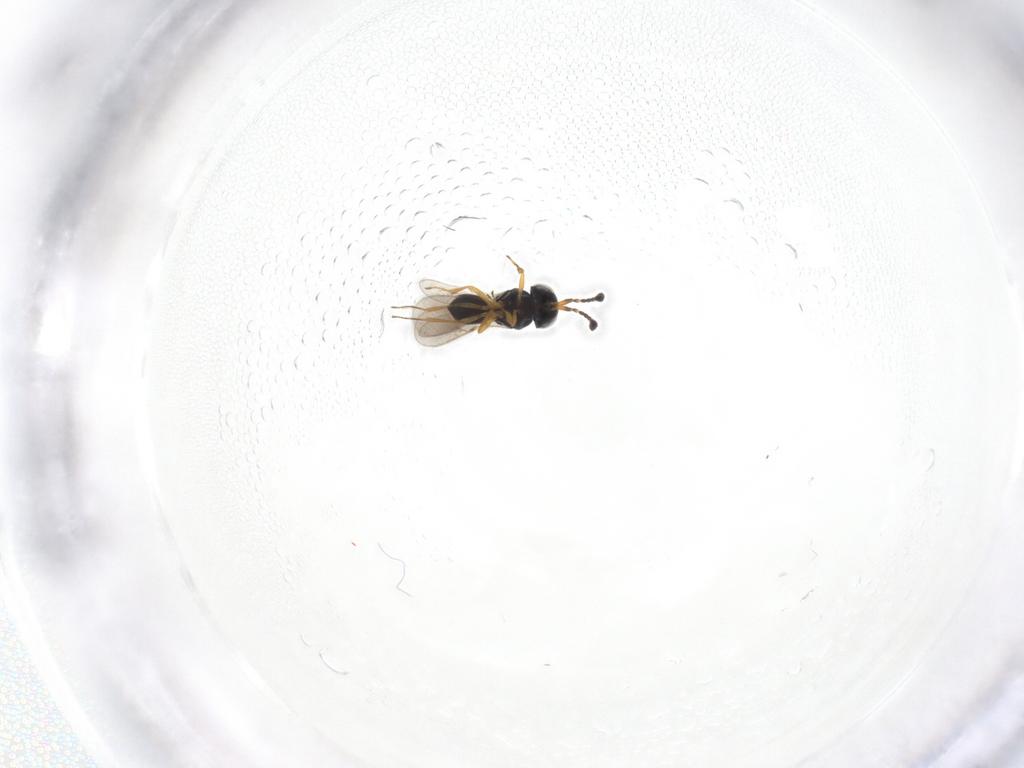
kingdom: Animalia
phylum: Arthropoda
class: Insecta
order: Hymenoptera
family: Scelionidae
